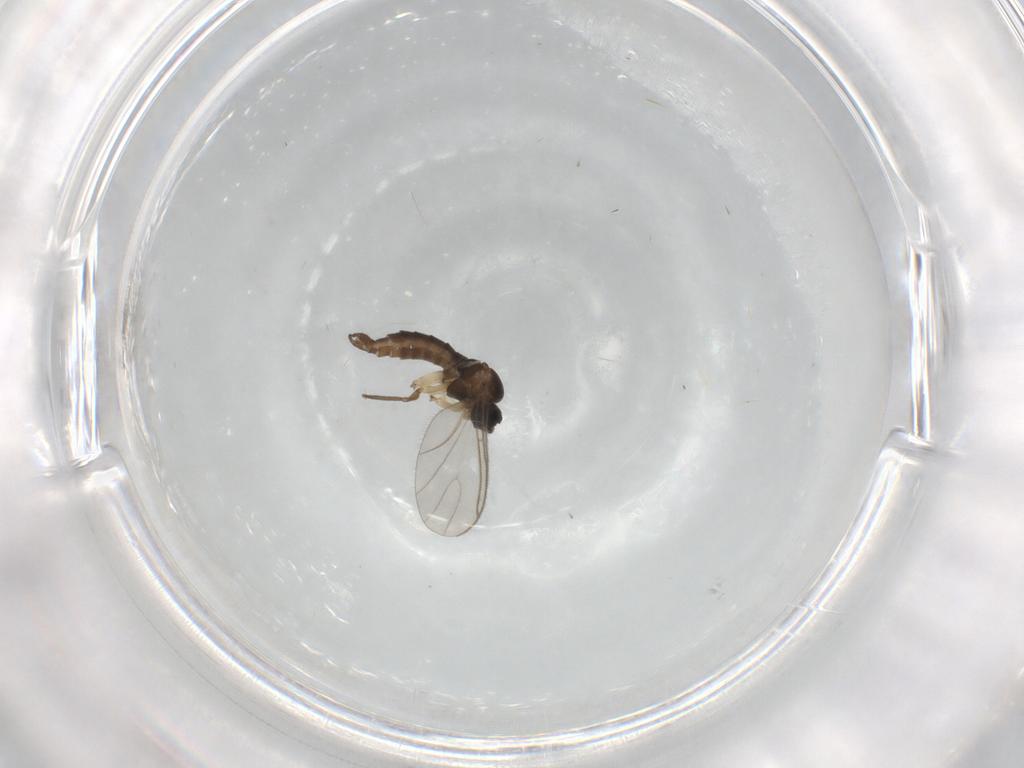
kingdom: Animalia
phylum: Arthropoda
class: Insecta
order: Diptera
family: Sciaridae
